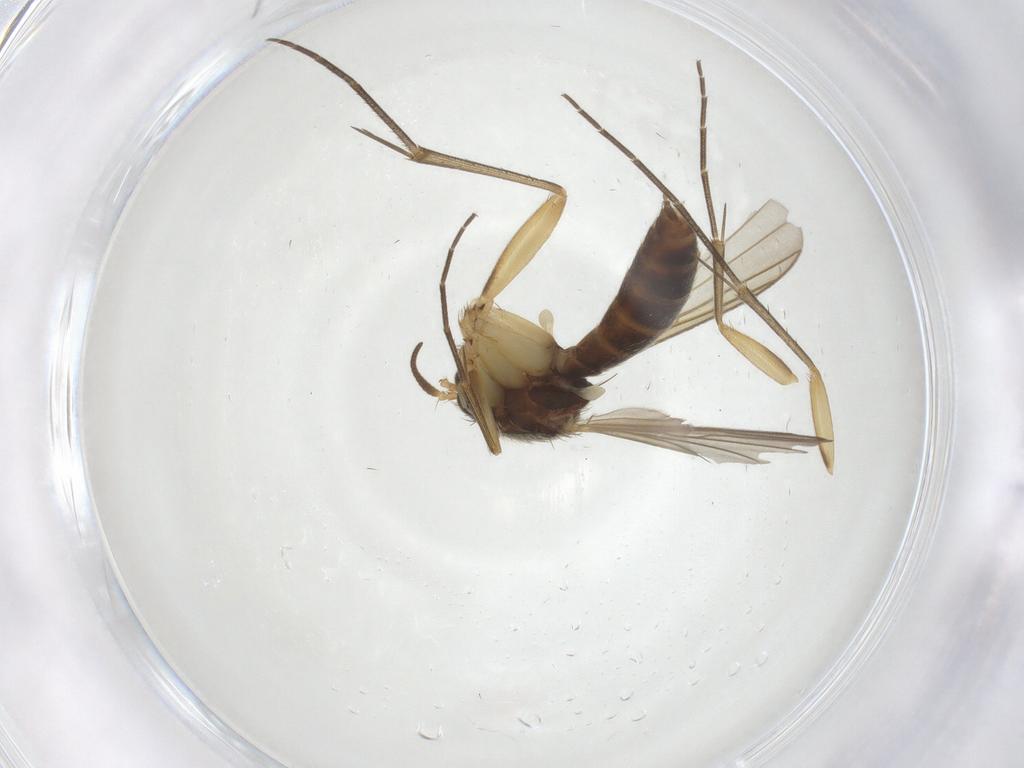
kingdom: Animalia
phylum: Arthropoda
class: Insecta
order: Diptera
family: Mycetophilidae
